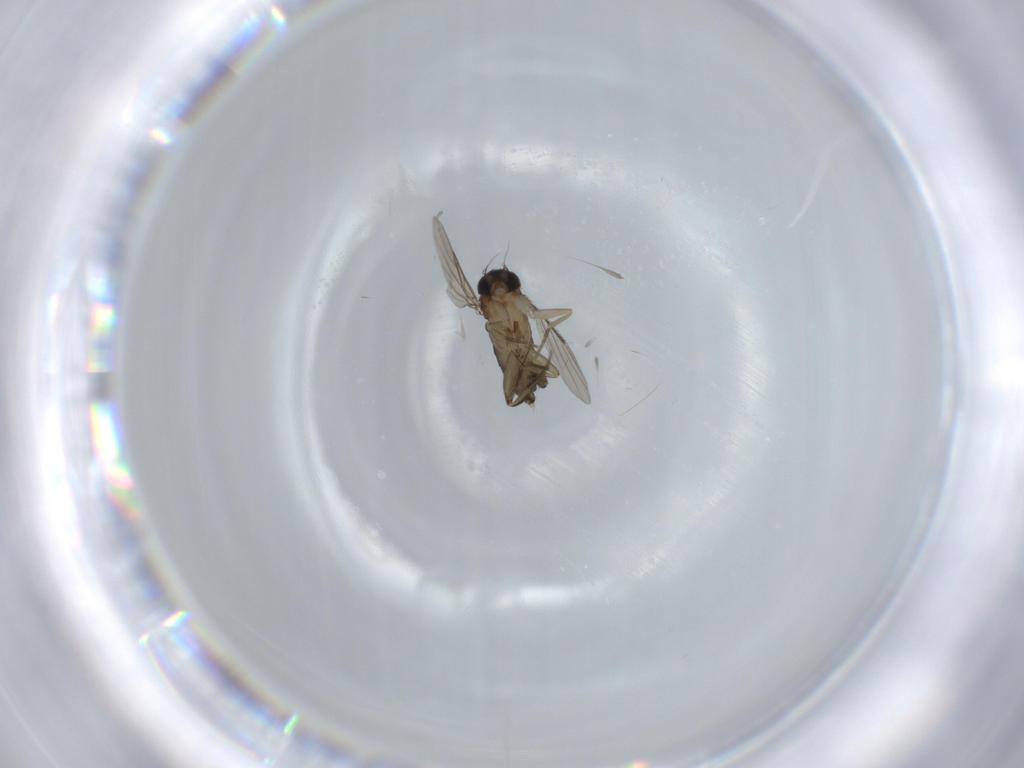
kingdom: Animalia
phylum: Arthropoda
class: Insecta
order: Diptera
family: Phoridae
